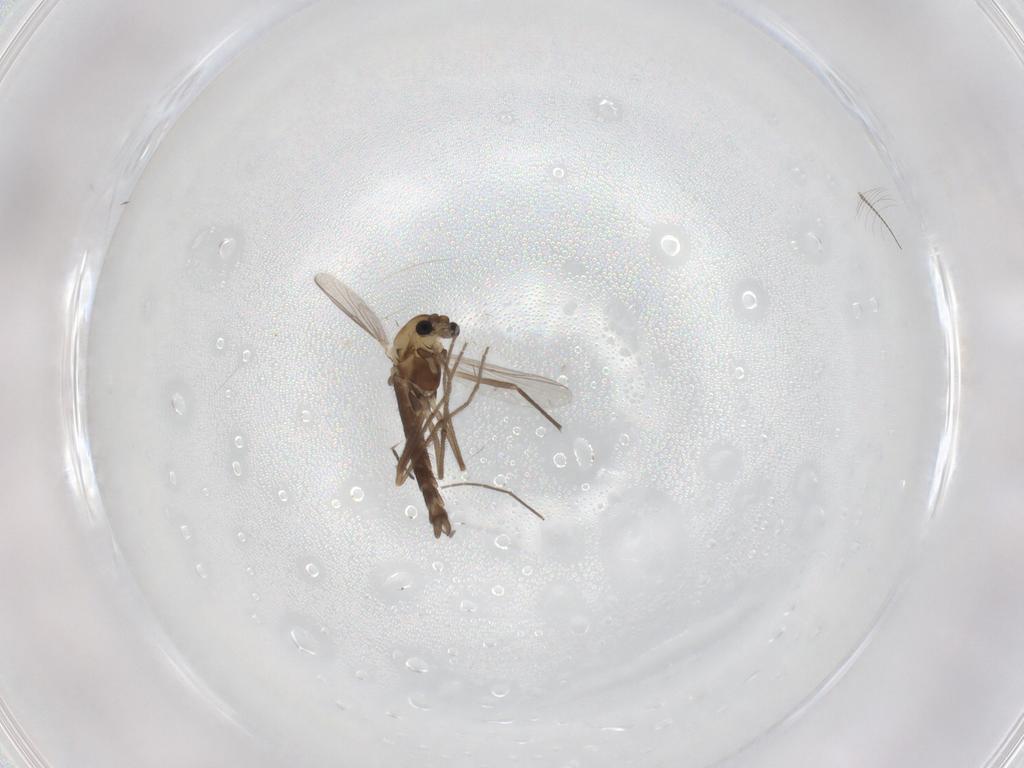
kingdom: Animalia
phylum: Arthropoda
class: Insecta
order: Diptera
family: Chironomidae
